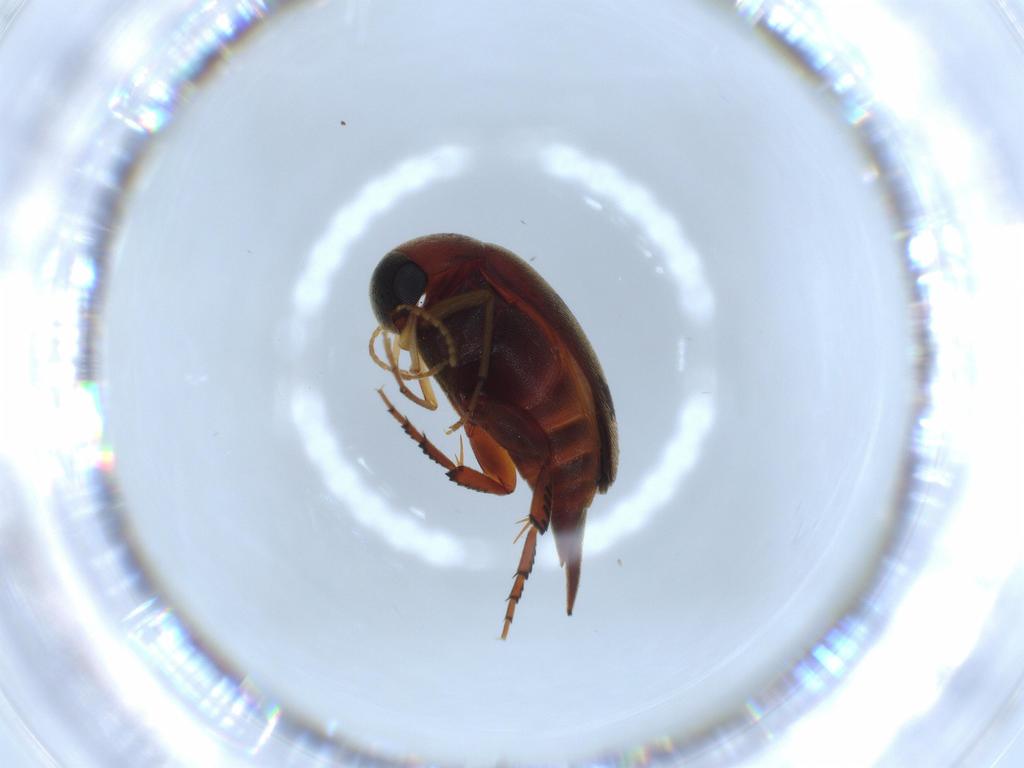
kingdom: Animalia
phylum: Arthropoda
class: Insecta
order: Coleoptera
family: Mordellidae
